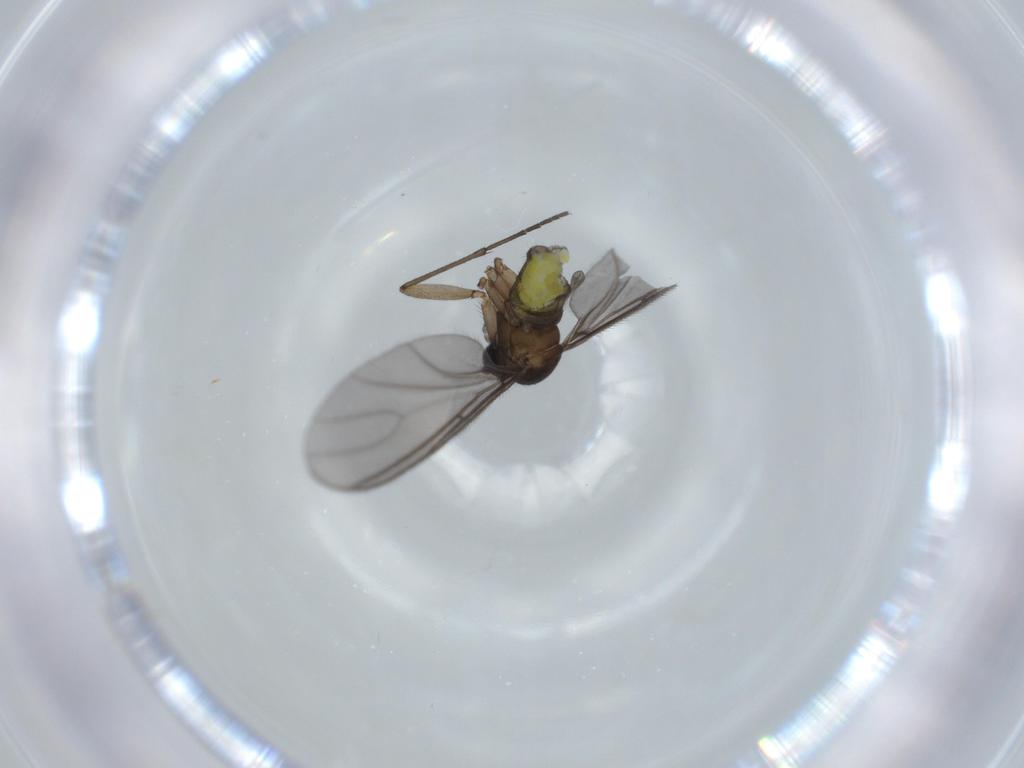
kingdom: Animalia
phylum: Arthropoda
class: Insecta
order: Diptera
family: Sciaridae
